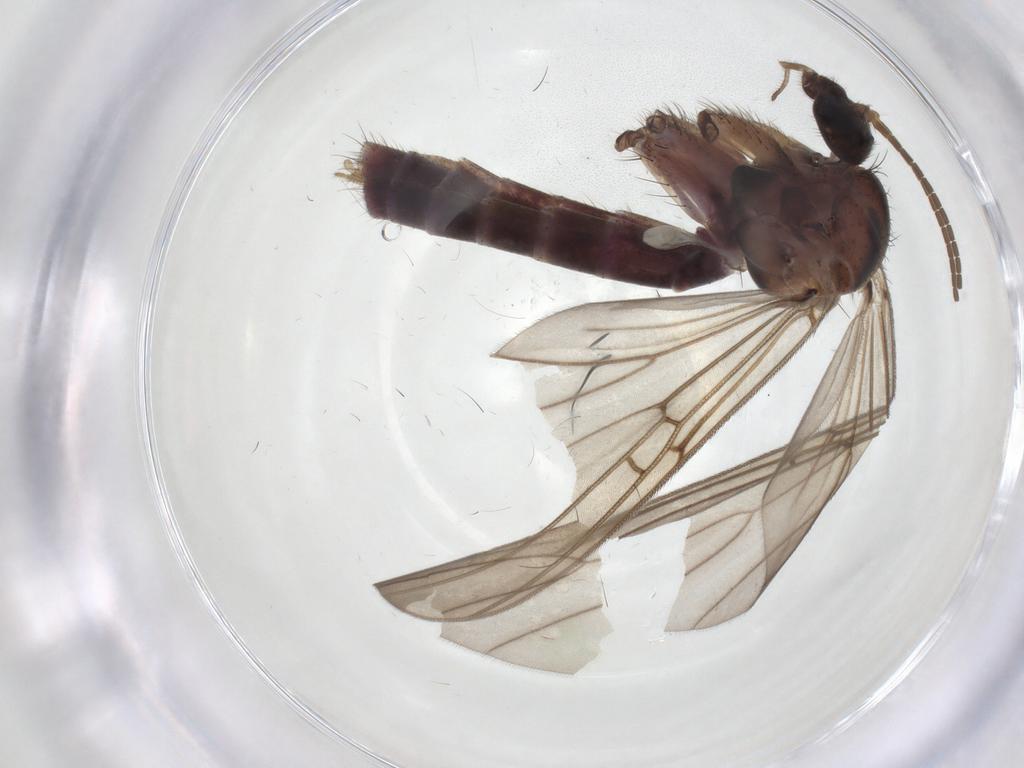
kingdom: Animalia
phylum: Arthropoda
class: Insecta
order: Diptera
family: Mycetophilidae
